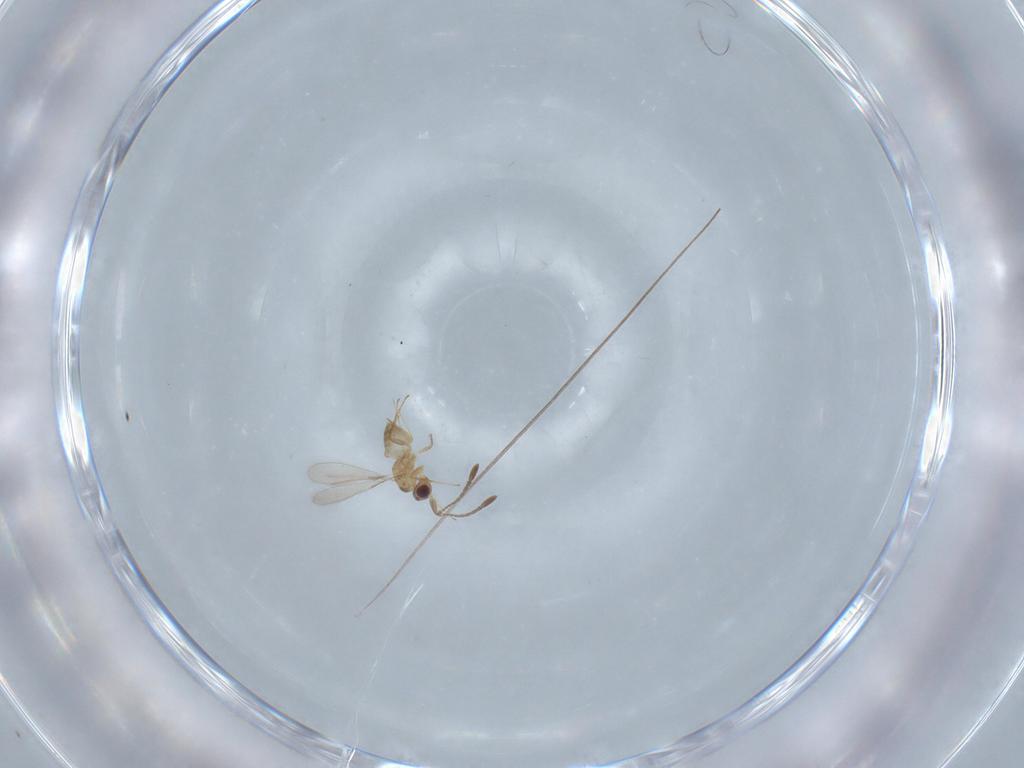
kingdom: Animalia
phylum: Arthropoda
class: Insecta
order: Hymenoptera
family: Mymaridae
